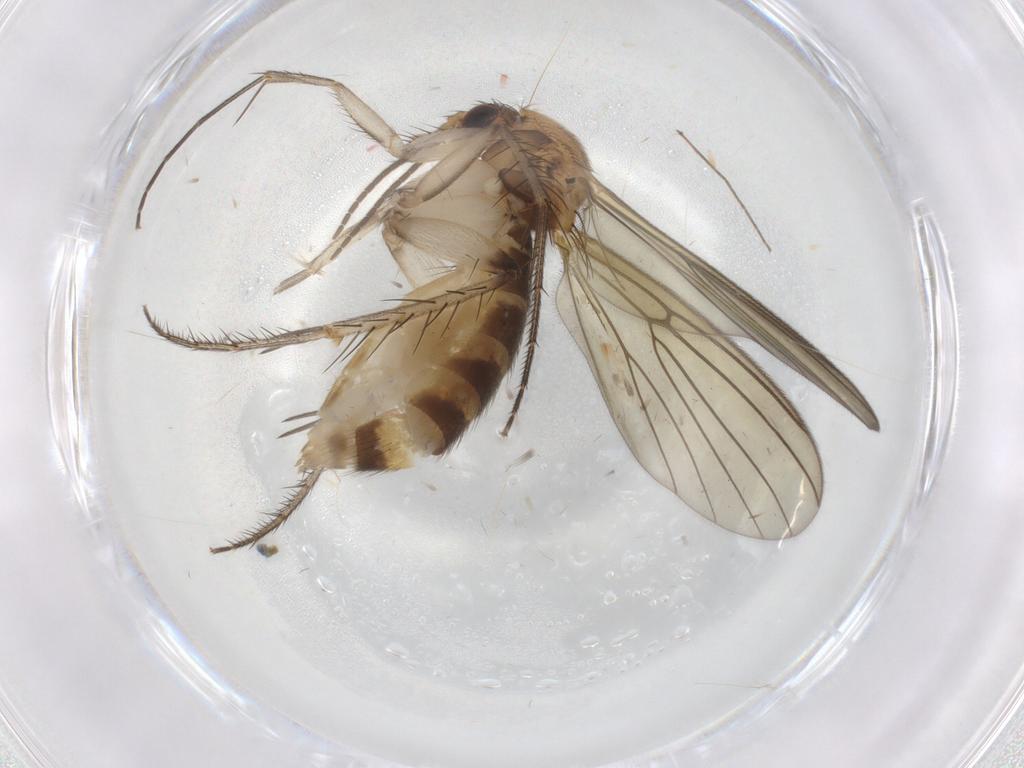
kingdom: Animalia
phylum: Arthropoda
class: Insecta
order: Diptera
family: Mycetophilidae
